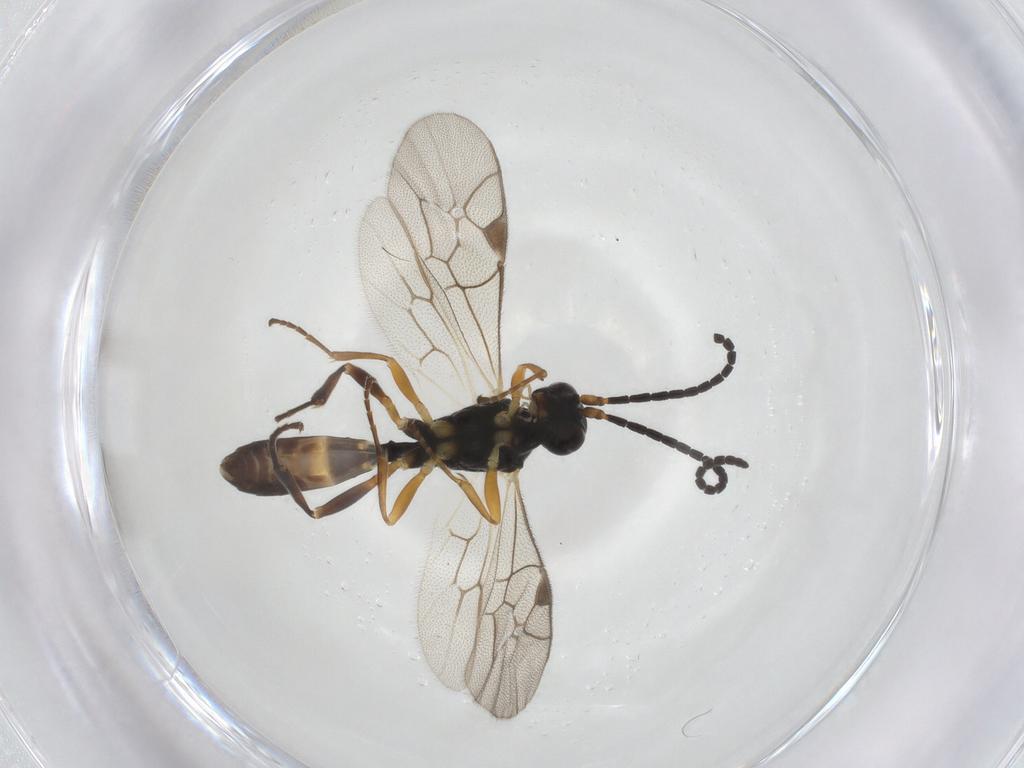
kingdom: Animalia
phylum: Arthropoda
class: Insecta
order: Hymenoptera
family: Ichneumonidae
